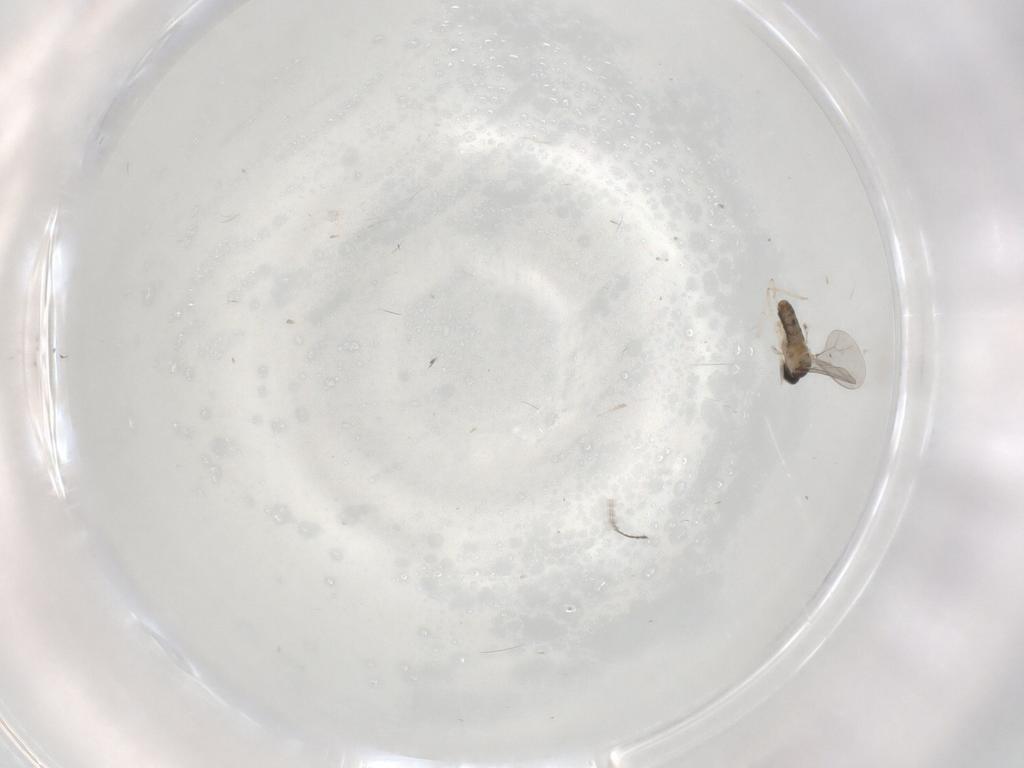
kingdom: Animalia
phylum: Arthropoda
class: Insecta
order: Diptera
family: Cecidomyiidae
